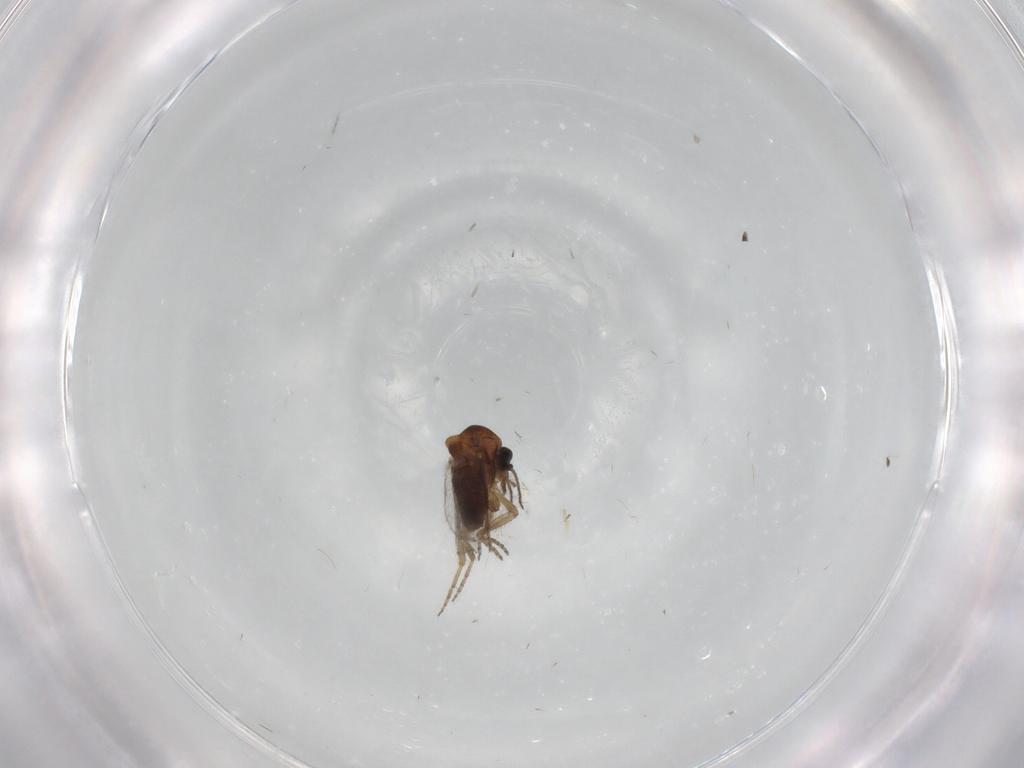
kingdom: Animalia
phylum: Arthropoda
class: Insecta
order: Diptera
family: Ceratopogonidae
